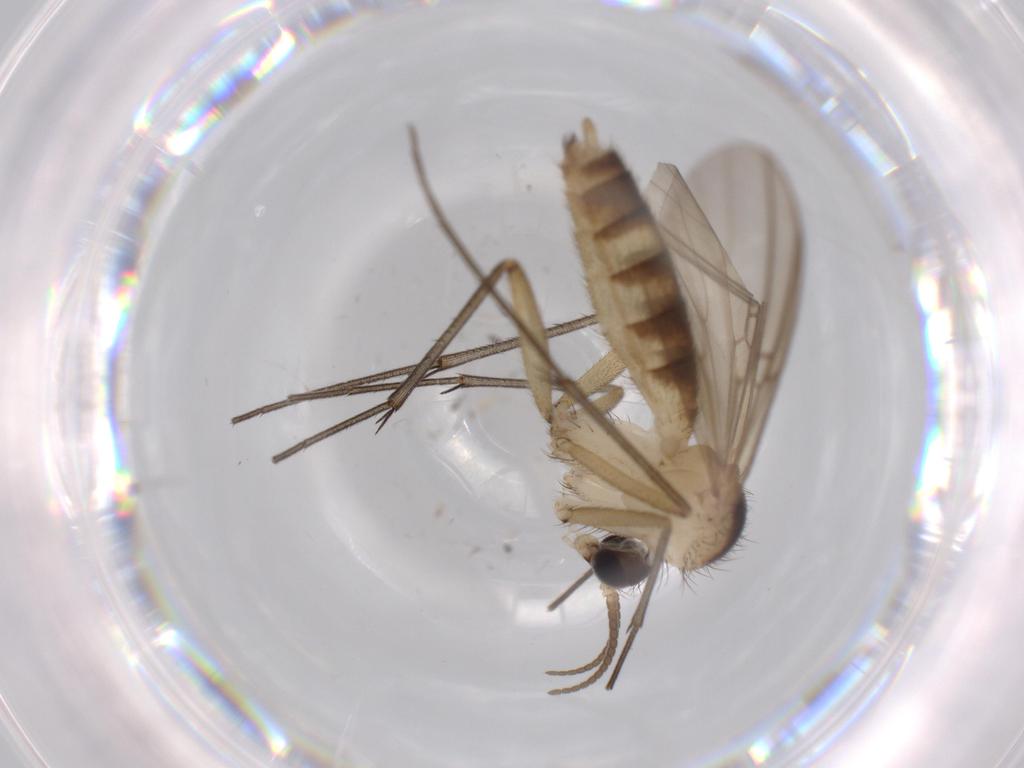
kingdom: Animalia
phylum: Arthropoda
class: Insecta
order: Diptera
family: Mycetophilidae
